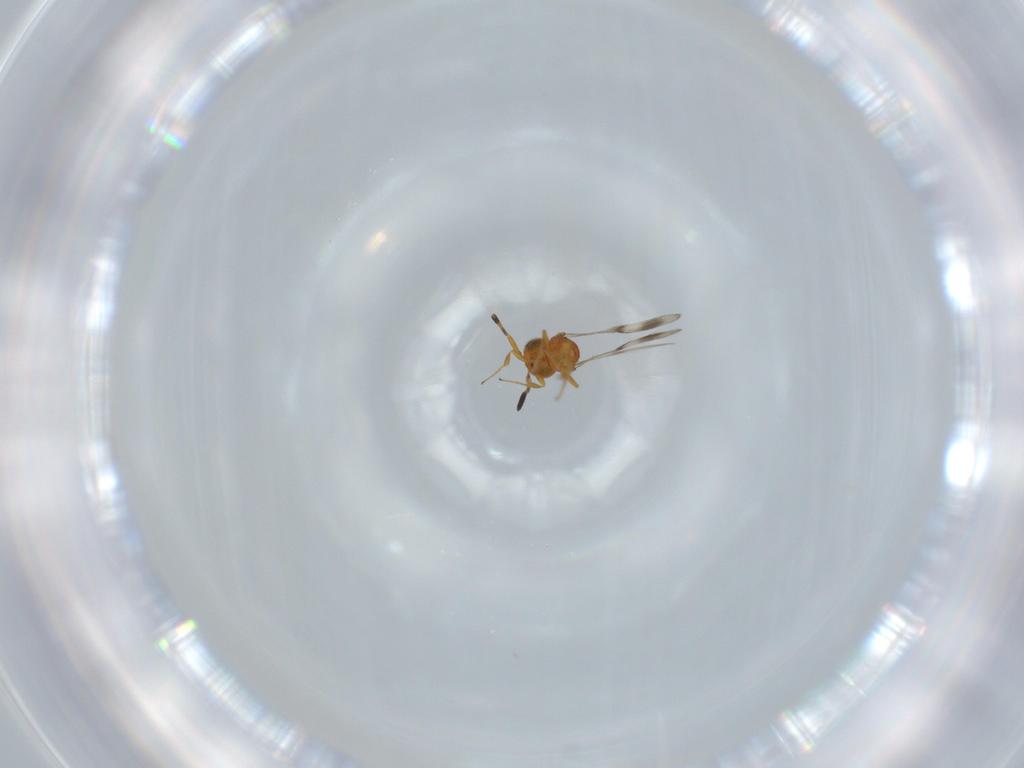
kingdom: Animalia
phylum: Arthropoda
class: Insecta
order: Hymenoptera
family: Scelionidae
